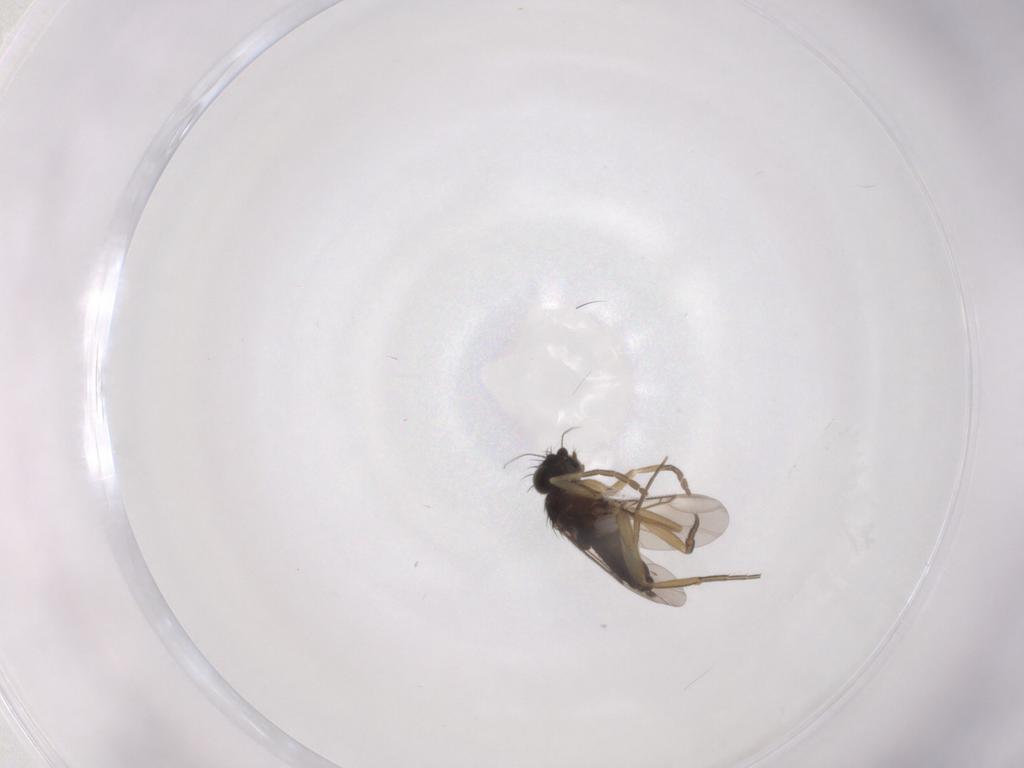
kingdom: Animalia
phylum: Arthropoda
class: Insecta
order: Lepidoptera
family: Dryadaulidae
